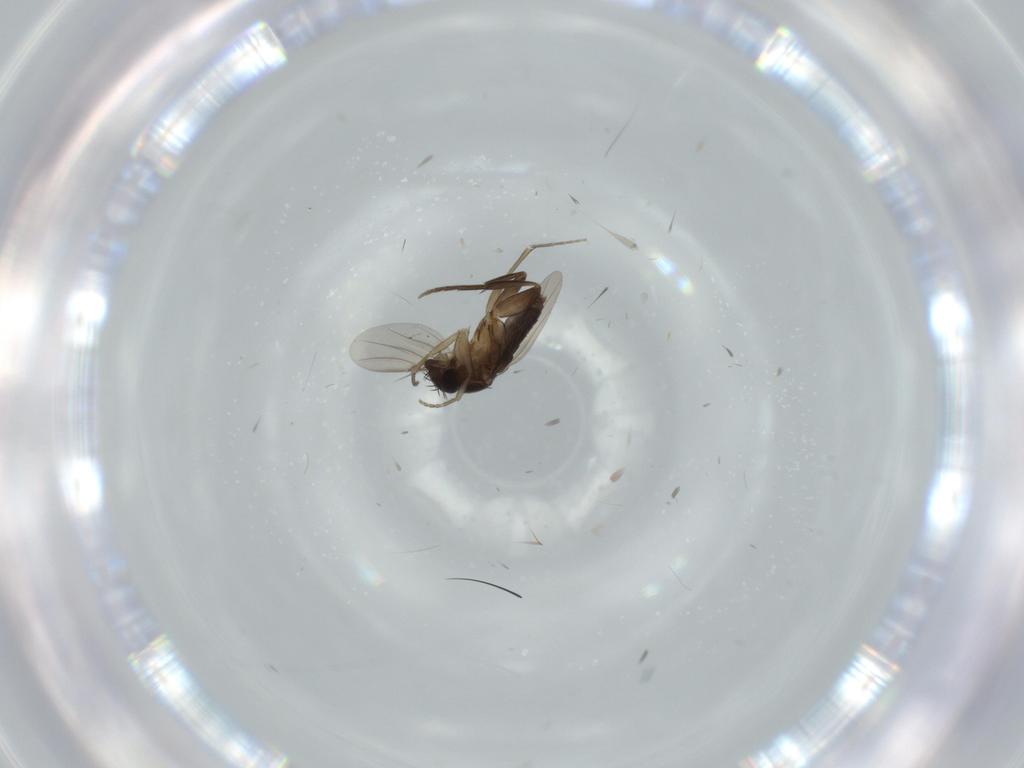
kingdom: Animalia
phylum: Arthropoda
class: Insecta
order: Diptera
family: Phoridae
